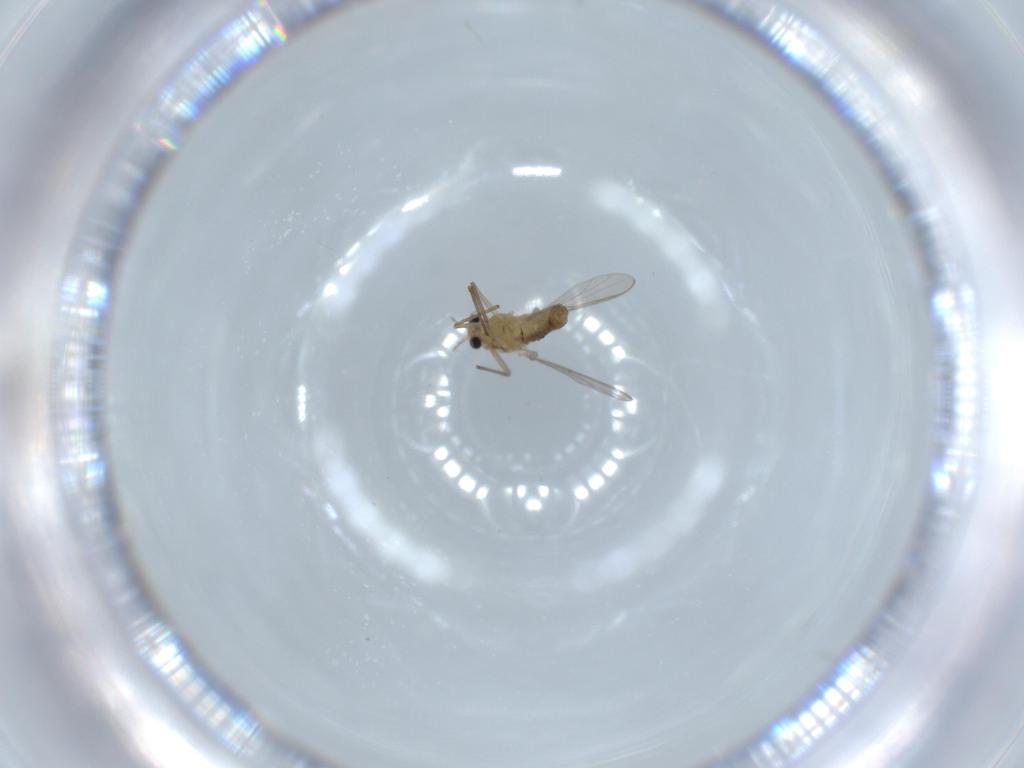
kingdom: Animalia
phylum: Arthropoda
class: Insecta
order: Diptera
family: Chironomidae
